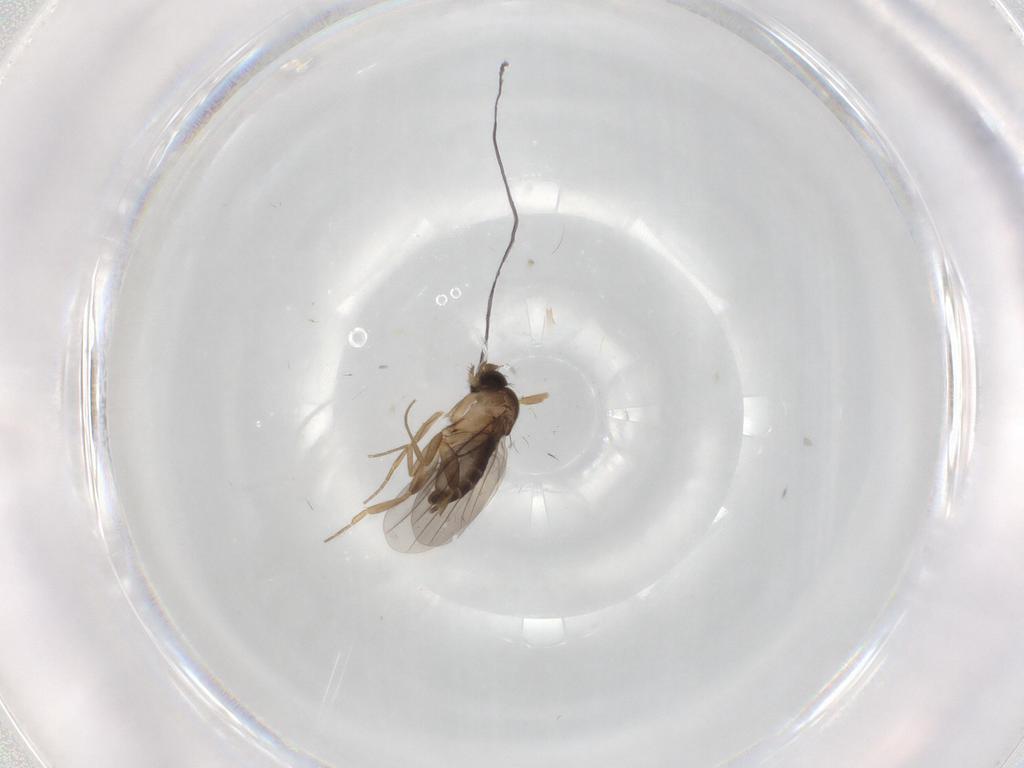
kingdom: Animalia
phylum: Arthropoda
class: Insecta
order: Diptera
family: Phoridae
